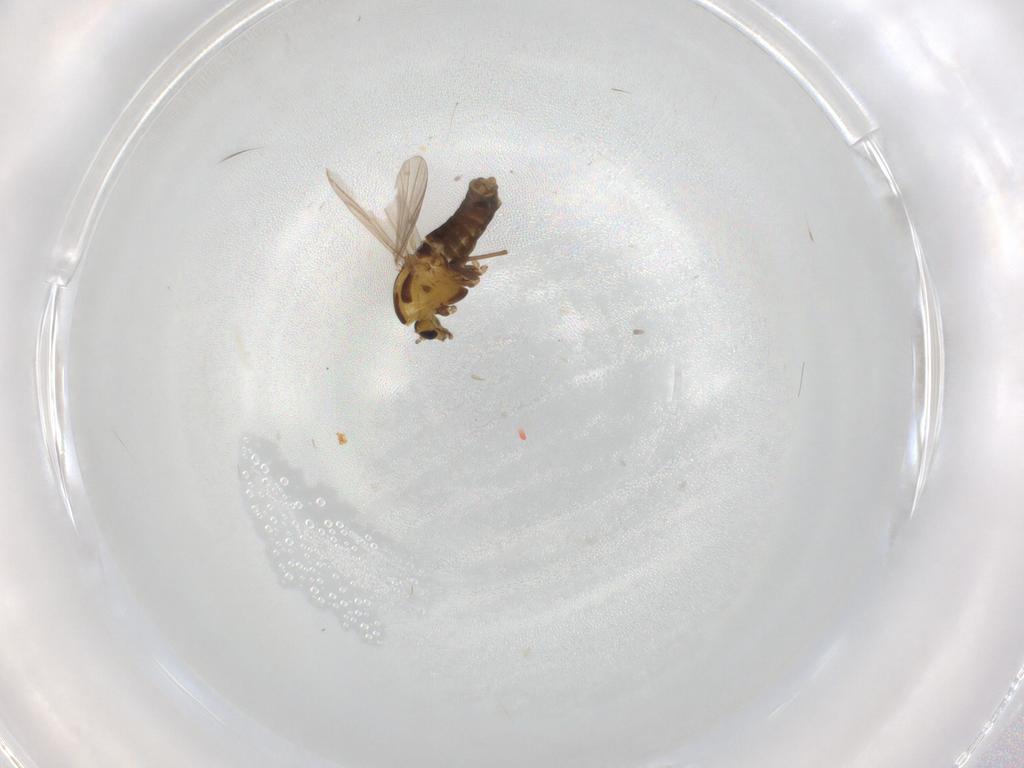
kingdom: Animalia
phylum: Arthropoda
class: Insecta
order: Diptera
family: Chironomidae
